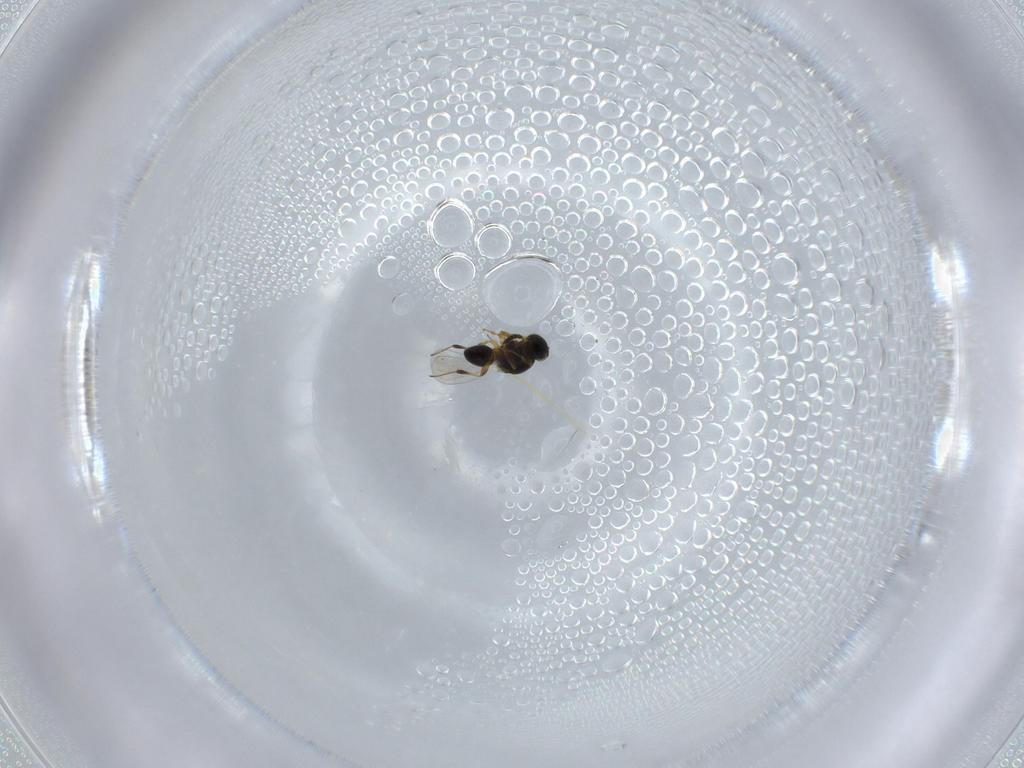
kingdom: Animalia
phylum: Arthropoda
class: Insecta
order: Hymenoptera
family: Platygastridae
